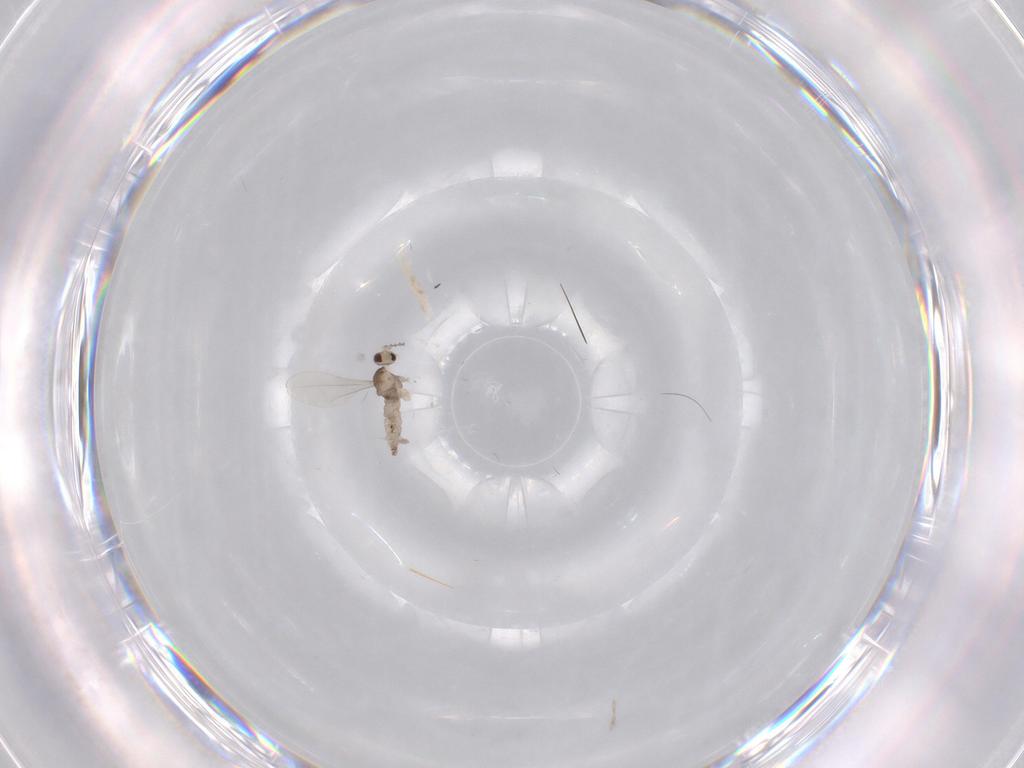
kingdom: Animalia
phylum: Arthropoda
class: Insecta
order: Diptera
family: Cecidomyiidae
